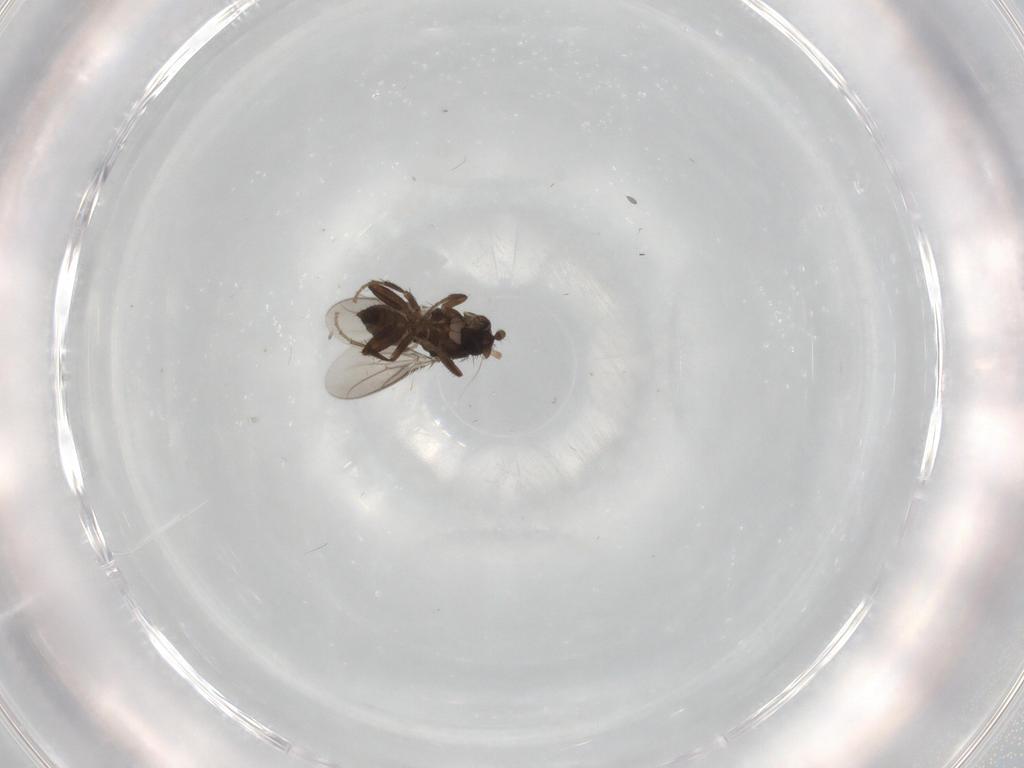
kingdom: Animalia
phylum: Arthropoda
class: Insecta
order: Diptera
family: Sphaeroceridae
